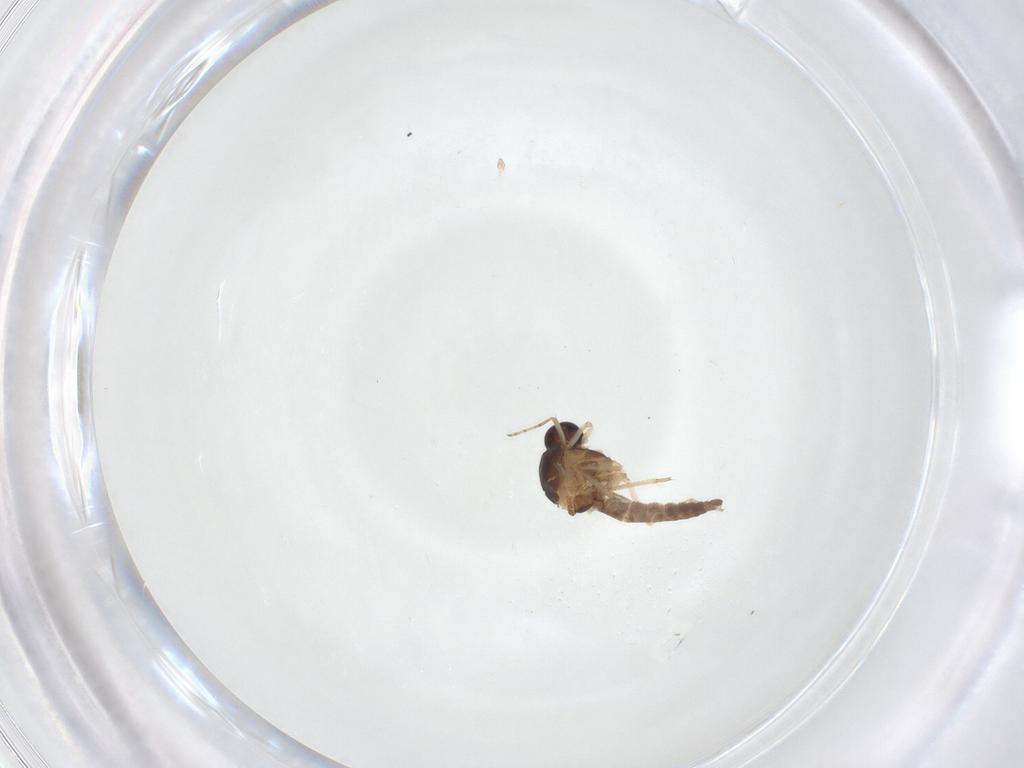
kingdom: Animalia
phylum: Arthropoda
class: Insecta
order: Diptera
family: Ceratopogonidae
